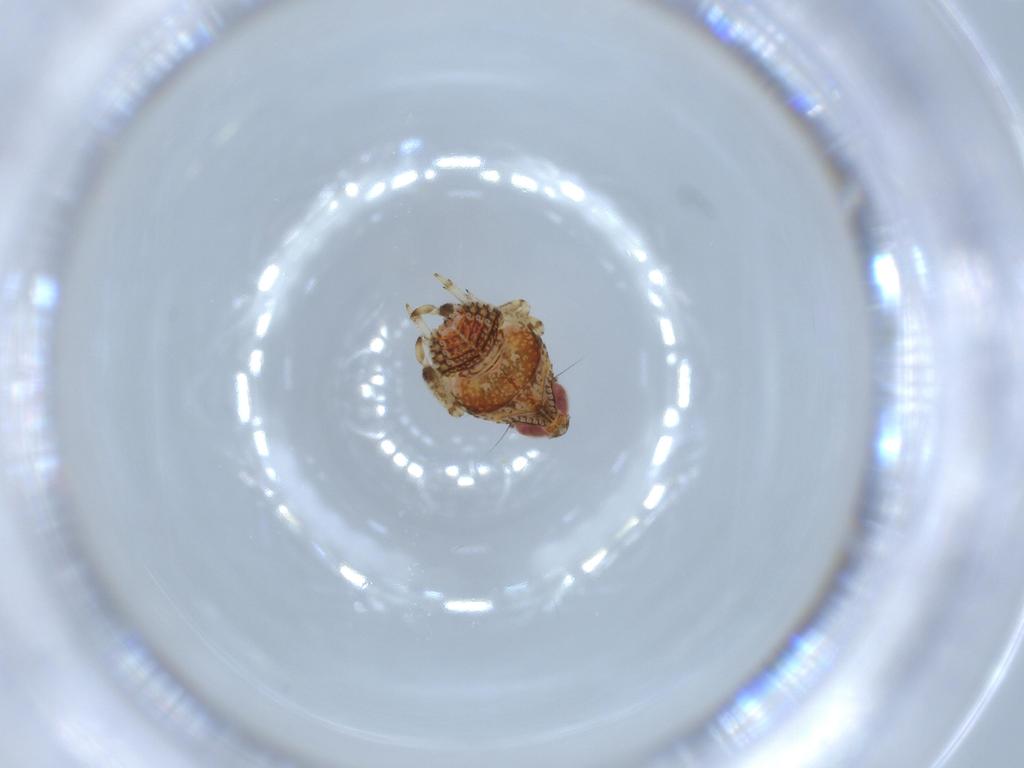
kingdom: Animalia
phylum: Arthropoda
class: Insecta
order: Hemiptera
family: Issidae
